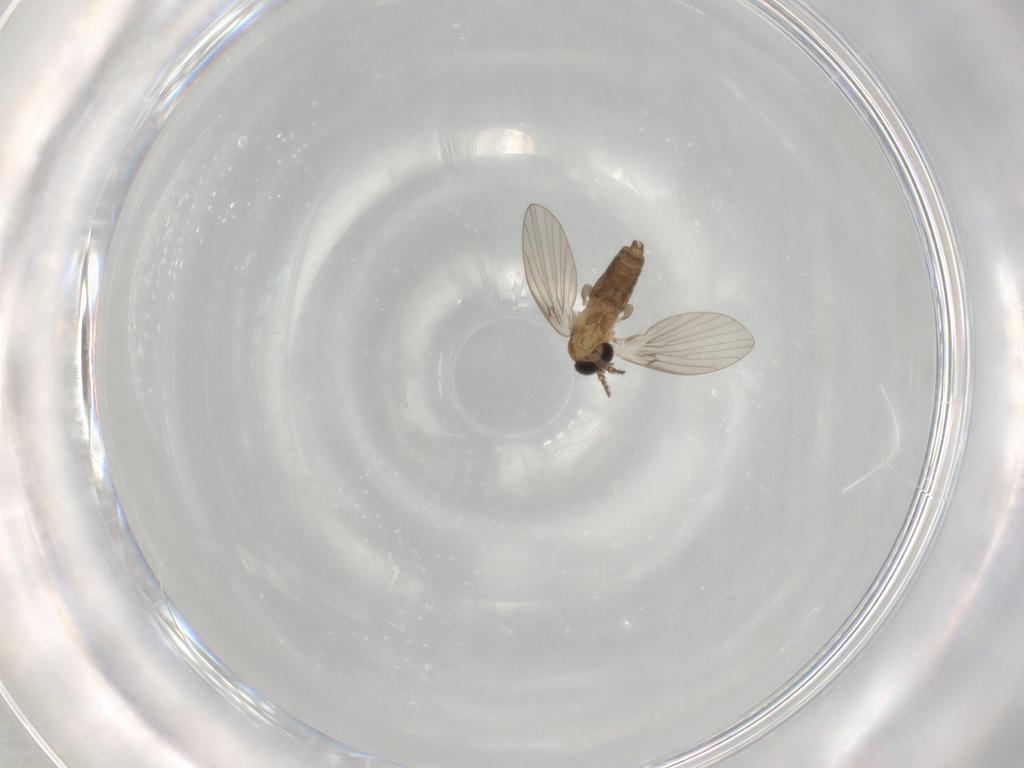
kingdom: Animalia
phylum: Arthropoda
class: Insecta
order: Diptera
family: Psychodidae
